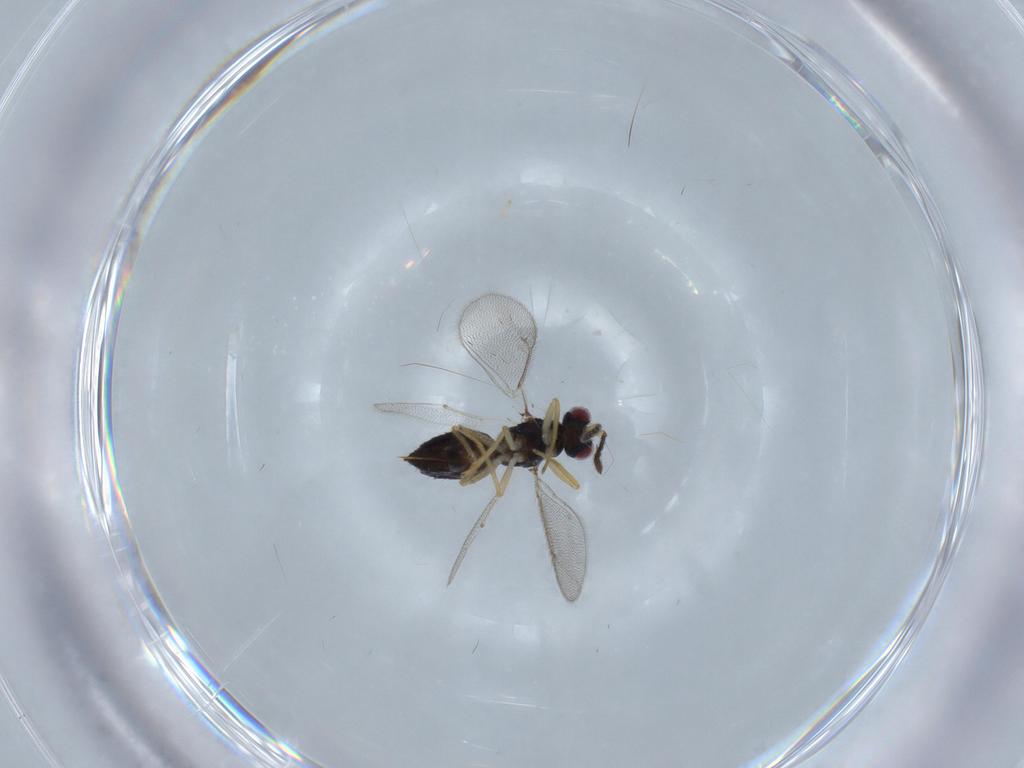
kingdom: Animalia
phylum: Arthropoda
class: Insecta
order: Hymenoptera
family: Eulophidae
